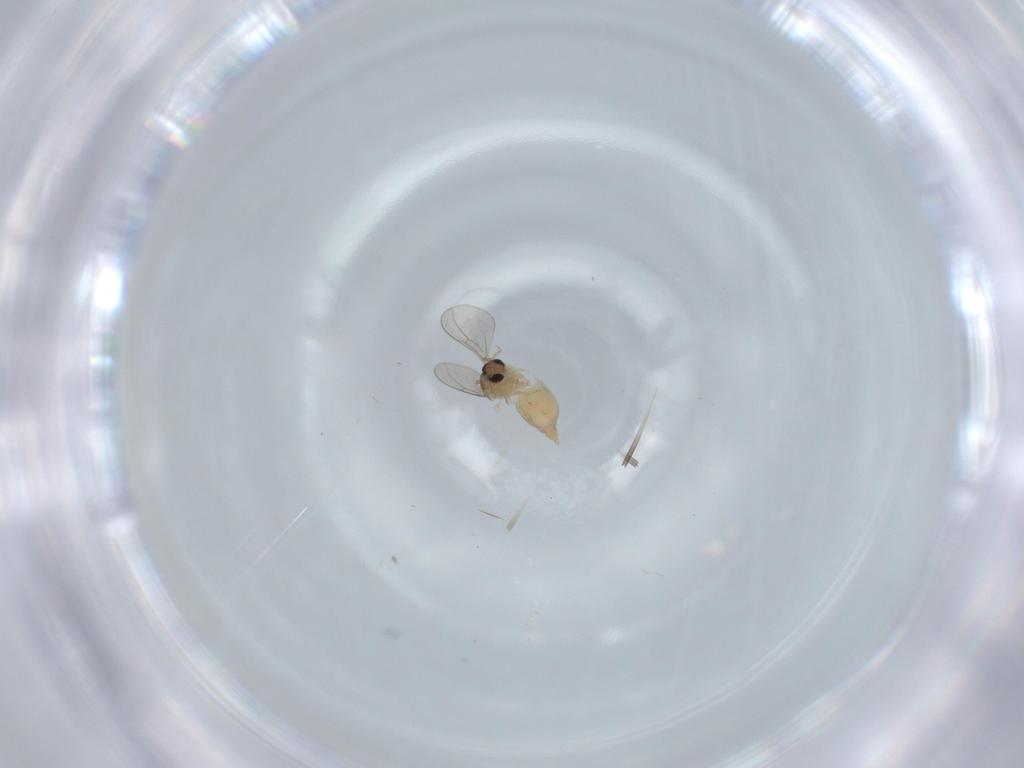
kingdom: Animalia
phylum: Arthropoda
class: Insecta
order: Diptera
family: Cecidomyiidae
